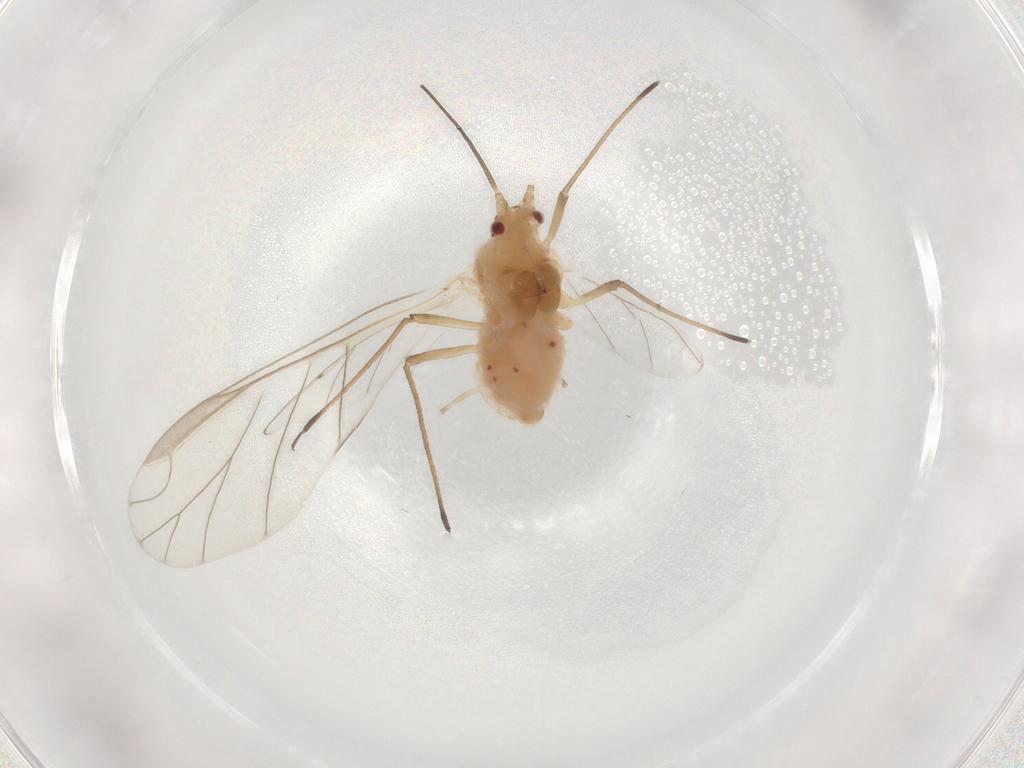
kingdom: Animalia
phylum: Arthropoda
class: Insecta
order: Hemiptera
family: Aphididae
